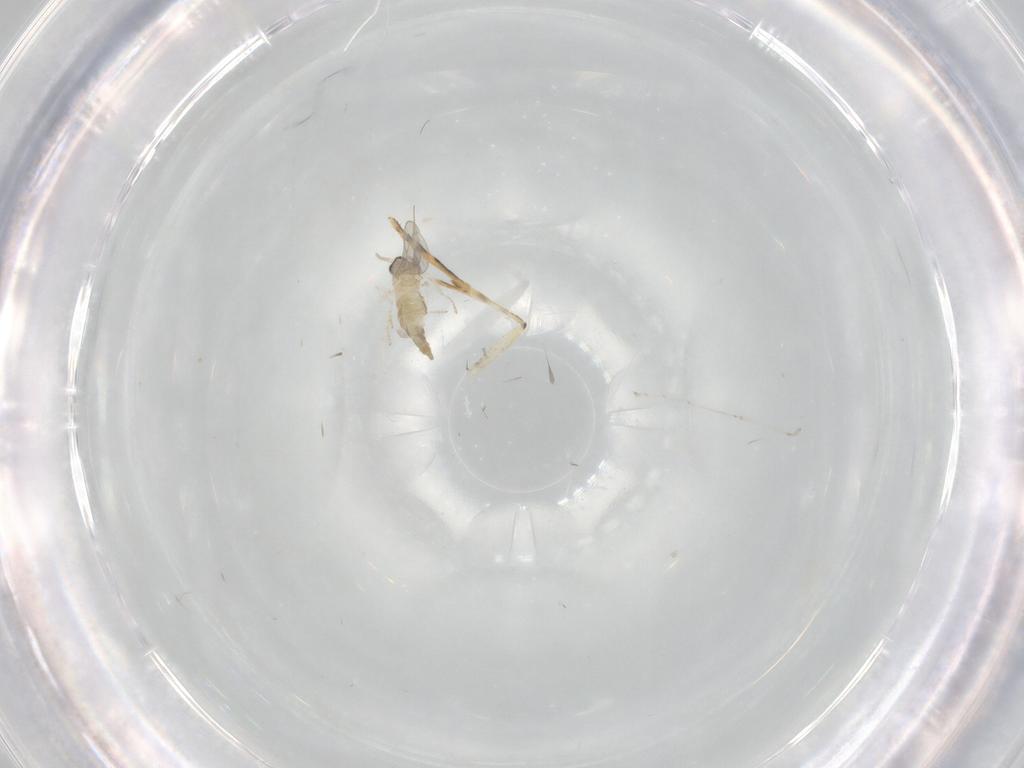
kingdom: Animalia
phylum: Arthropoda
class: Insecta
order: Diptera
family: Cecidomyiidae
